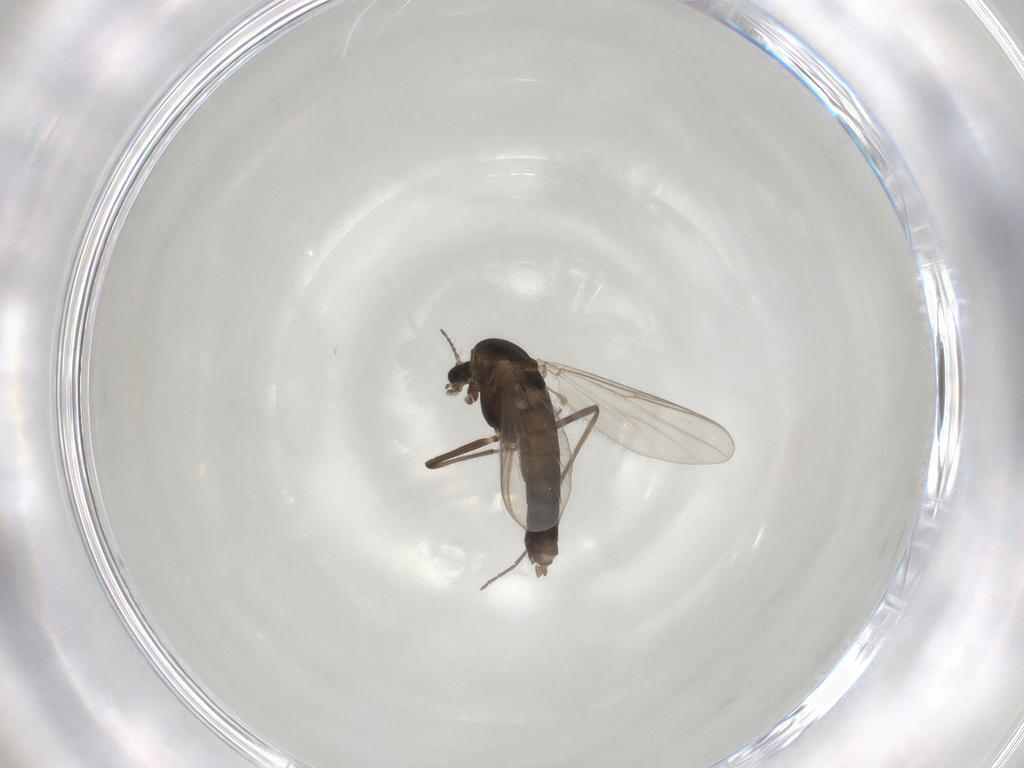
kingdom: Animalia
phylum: Arthropoda
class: Insecta
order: Diptera
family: Chironomidae
